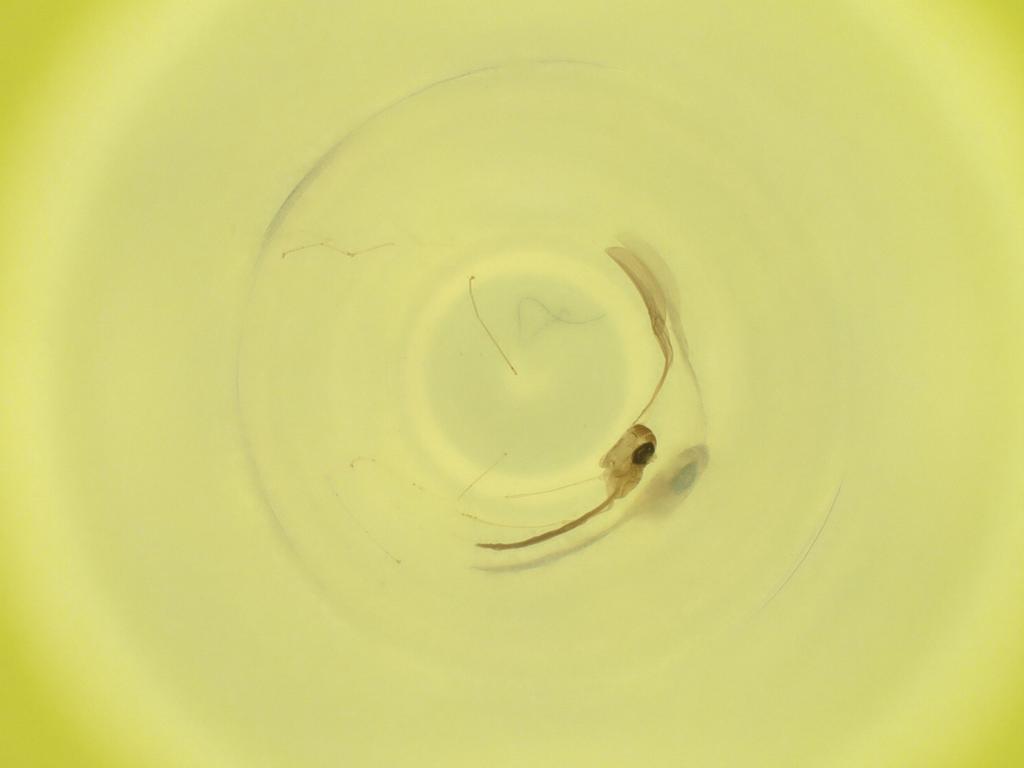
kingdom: Animalia
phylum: Arthropoda
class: Insecta
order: Diptera
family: Cecidomyiidae
